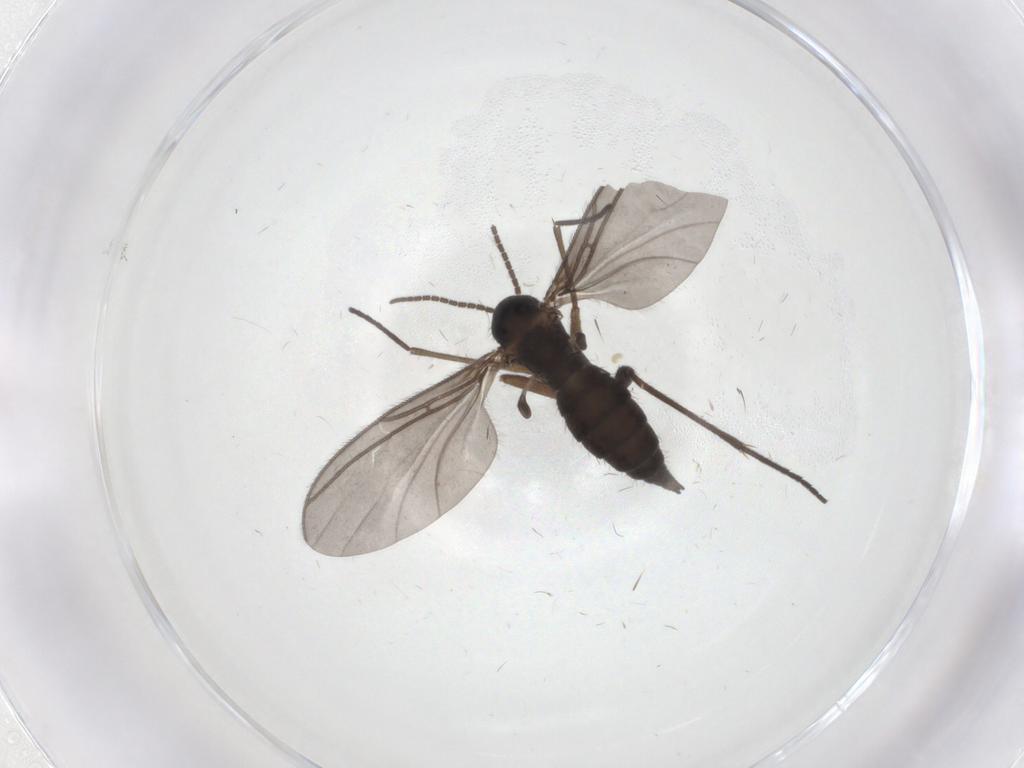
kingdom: Animalia
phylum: Arthropoda
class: Insecta
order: Diptera
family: Sciaridae
